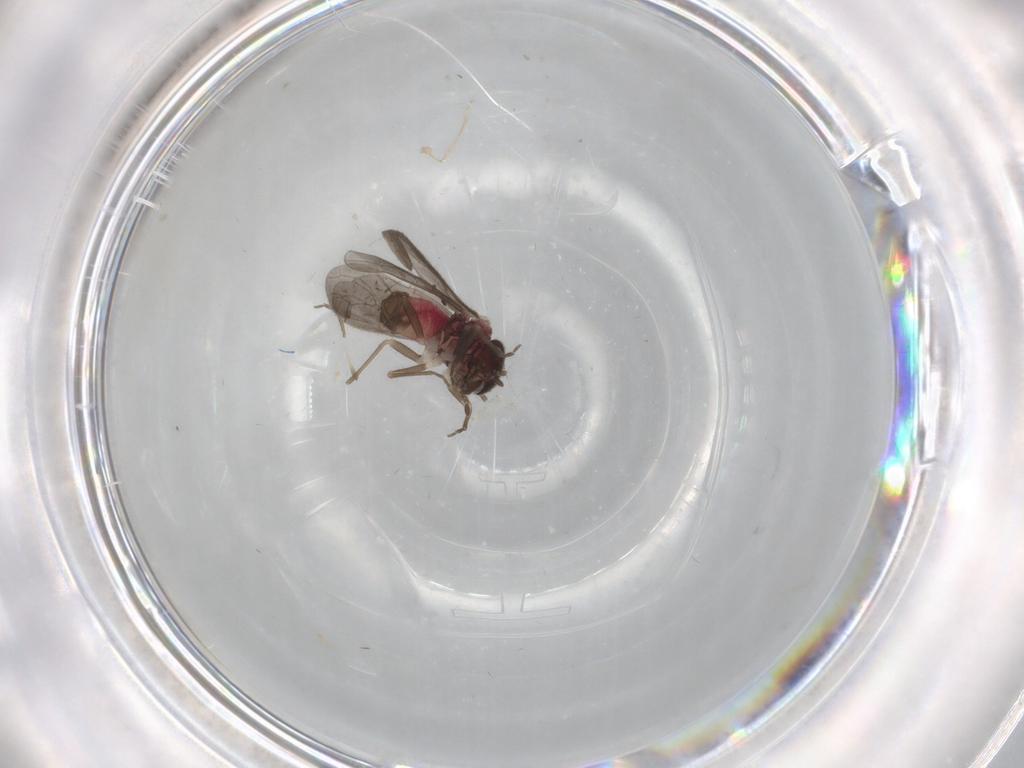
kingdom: Animalia
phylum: Arthropoda
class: Insecta
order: Psocodea
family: Archipsocidae
